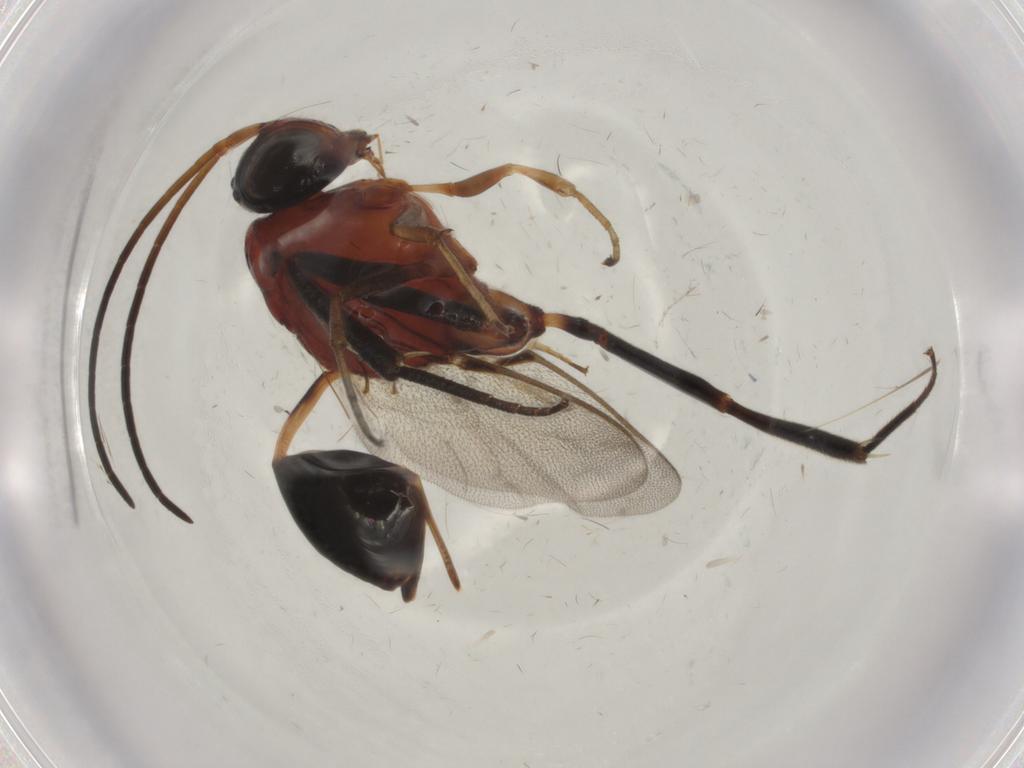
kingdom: Animalia
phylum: Arthropoda
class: Insecta
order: Hymenoptera
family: Evaniidae
